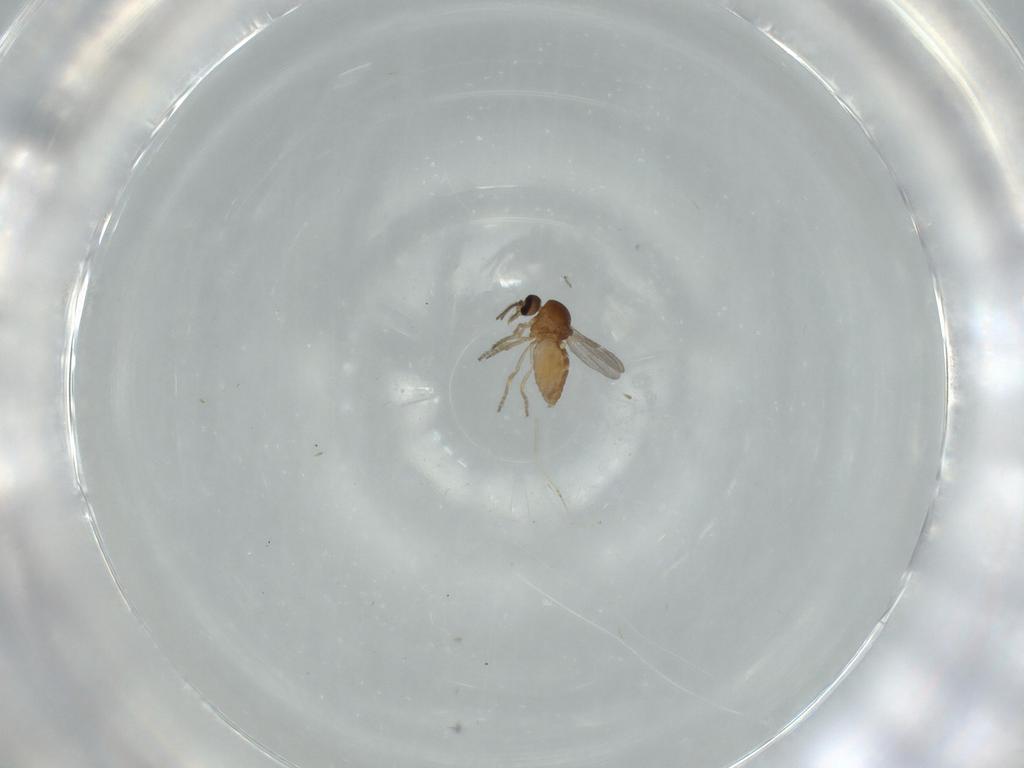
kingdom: Animalia
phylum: Arthropoda
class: Insecta
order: Diptera
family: Ceratopogonidae
